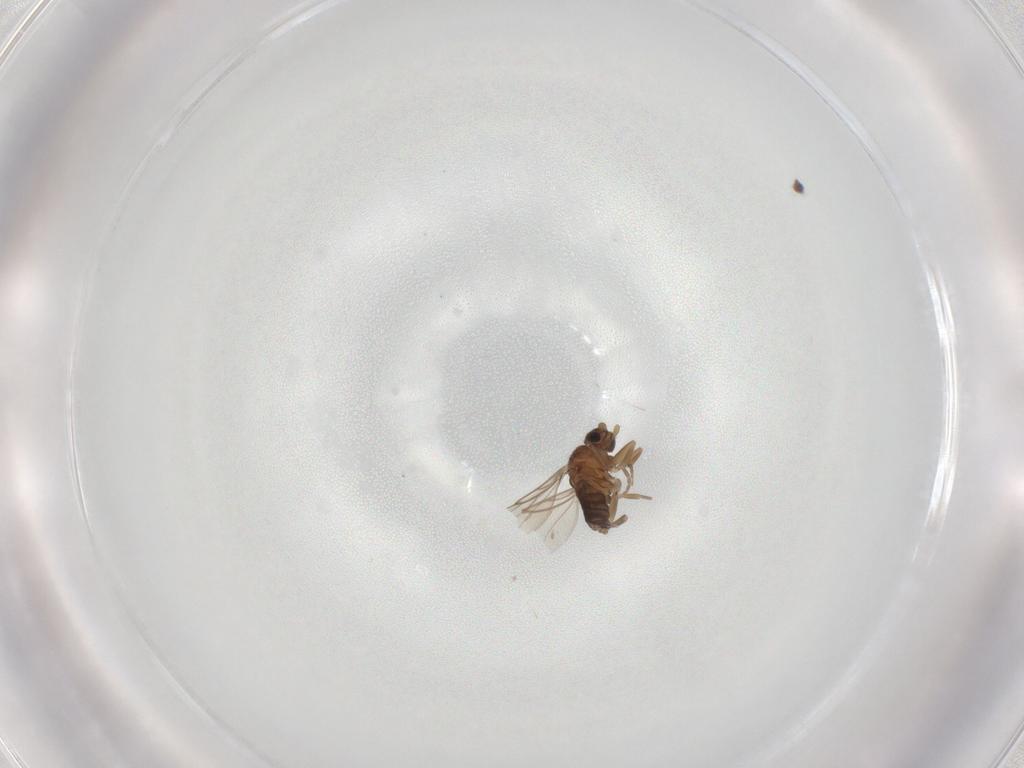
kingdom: Animalia
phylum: Arthropoda
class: Insecta
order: Diptera
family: Phoridae
